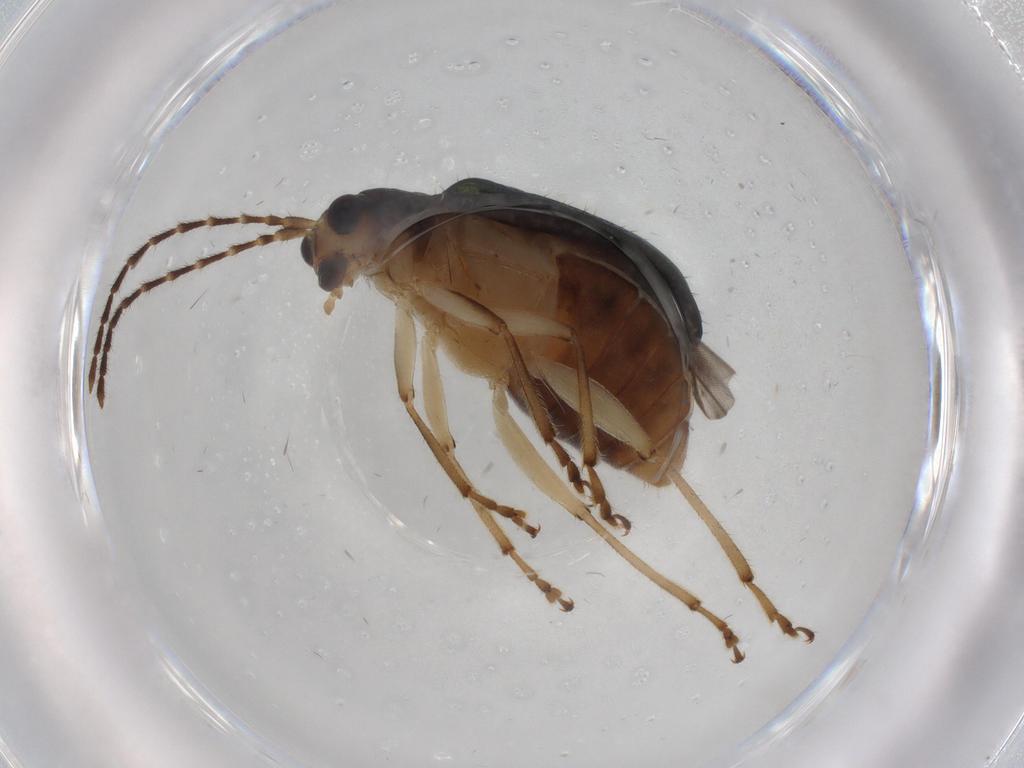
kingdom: Animalia
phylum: Arthropoda
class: Insecta
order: Coleoptera
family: Chrysomelidae
